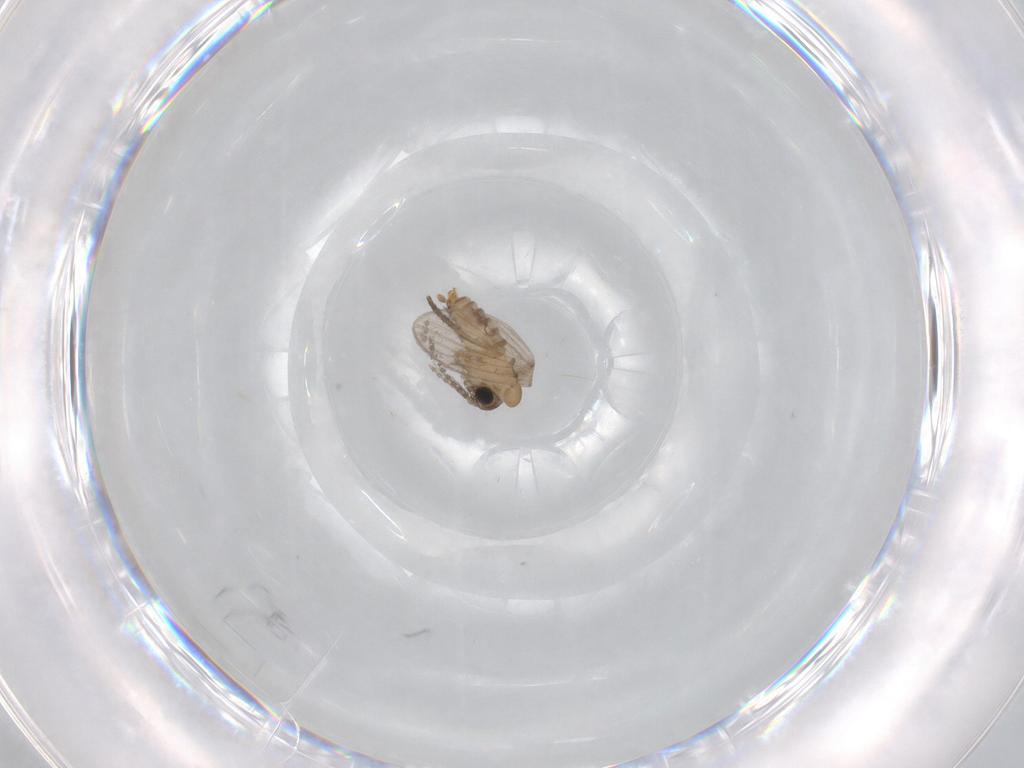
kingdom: Animalia
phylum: Arthropoda
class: Insecta
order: Diptera
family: Psychodidae
